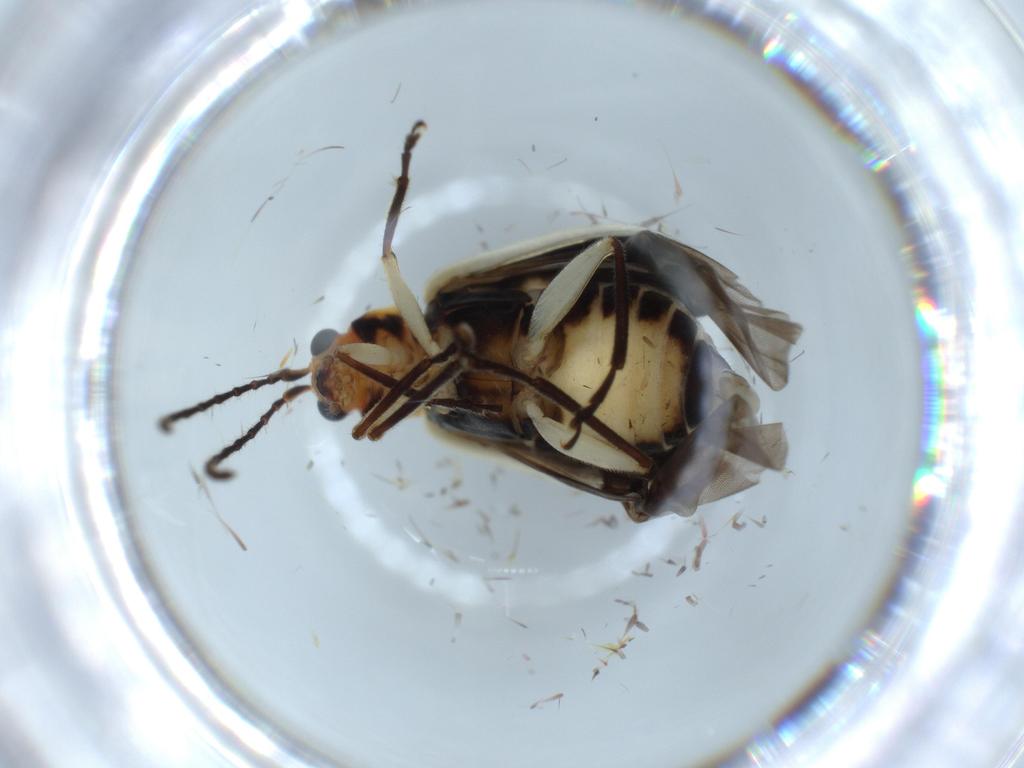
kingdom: Animalia
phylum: Arthropoda
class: Insecta
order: Coleoptera
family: Chrysomelidae
